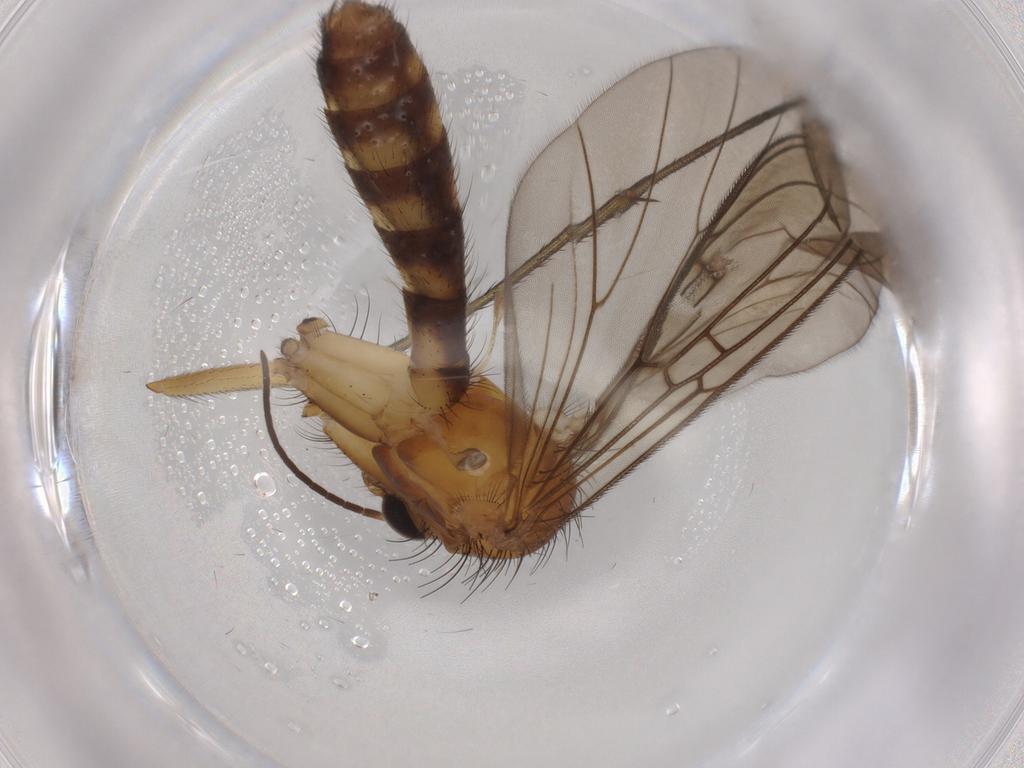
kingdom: Animalia
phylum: Arthropoda
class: Insecta
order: Diptera
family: Mycetophilidae
